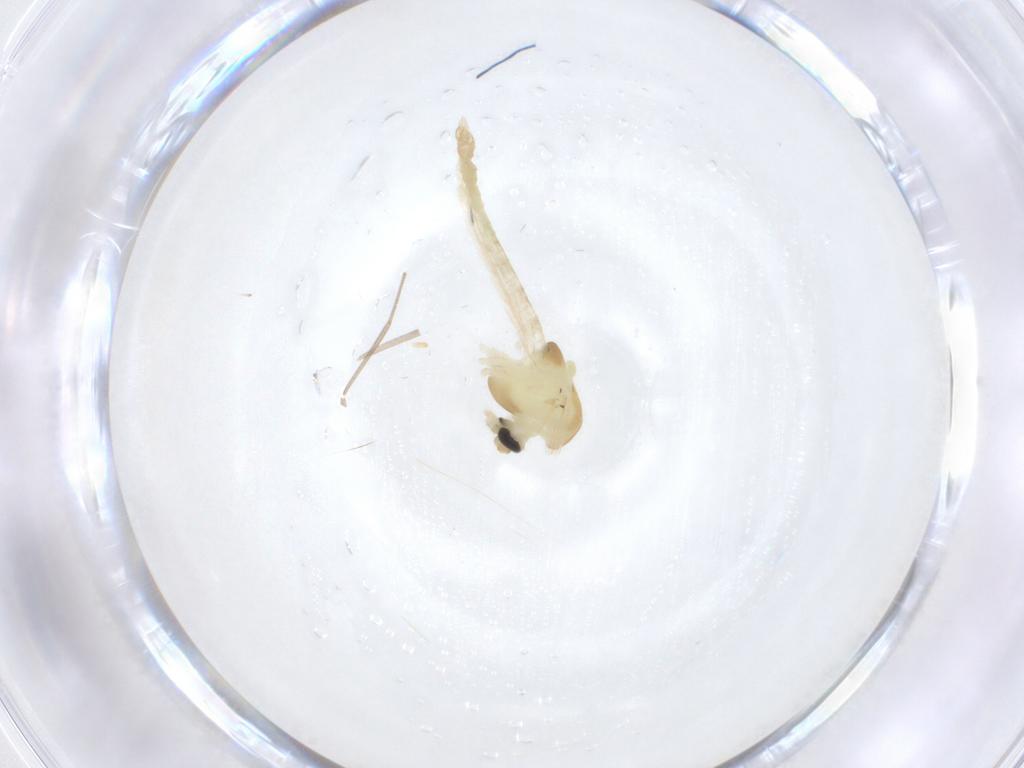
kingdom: Animalia
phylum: Arthropoda
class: Insecta
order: Diptera
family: Chironomidae
